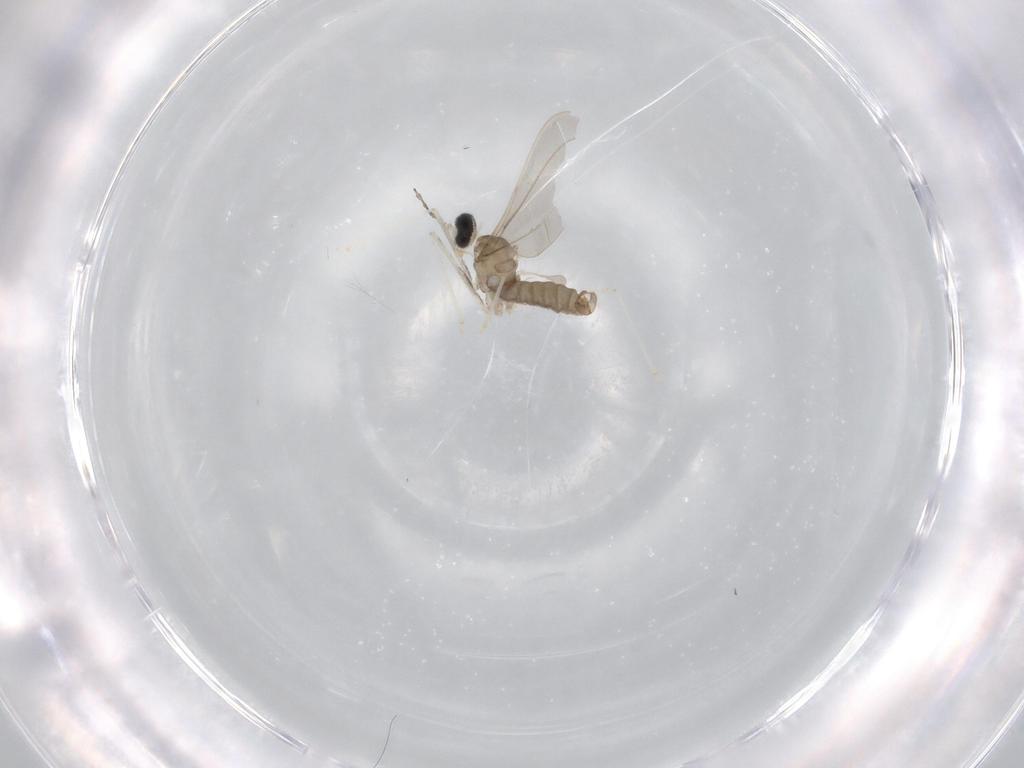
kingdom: Animalia
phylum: Arthropoda
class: Insecta
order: Diptera
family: Cecidomyiidae
